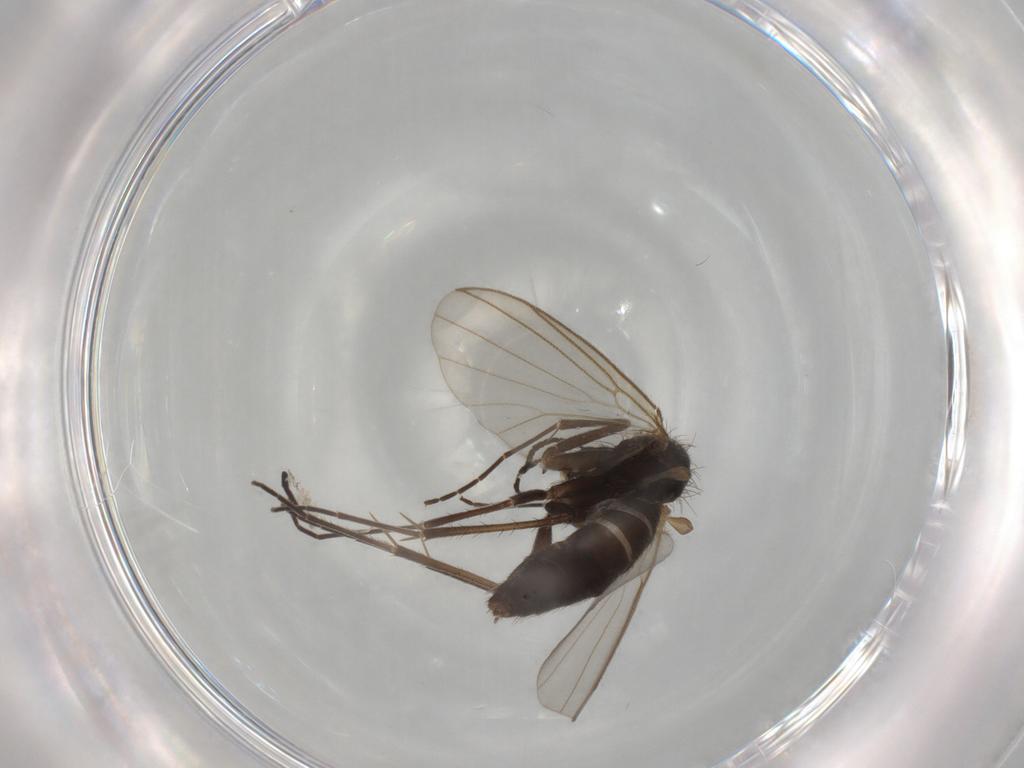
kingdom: Animalia
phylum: Arthropoda
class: Insecta
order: Diptera
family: Mycetophilidae
